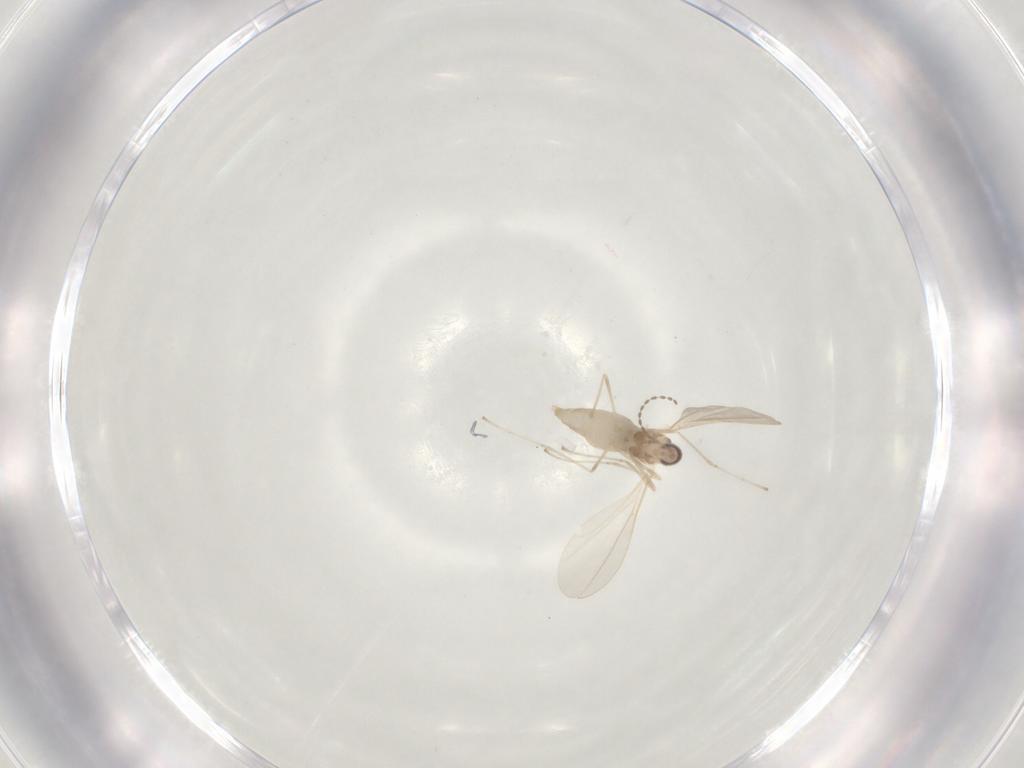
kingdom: Animalia
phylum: Arthropoda
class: Insecta
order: Diptera
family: Cecidomyiidae
